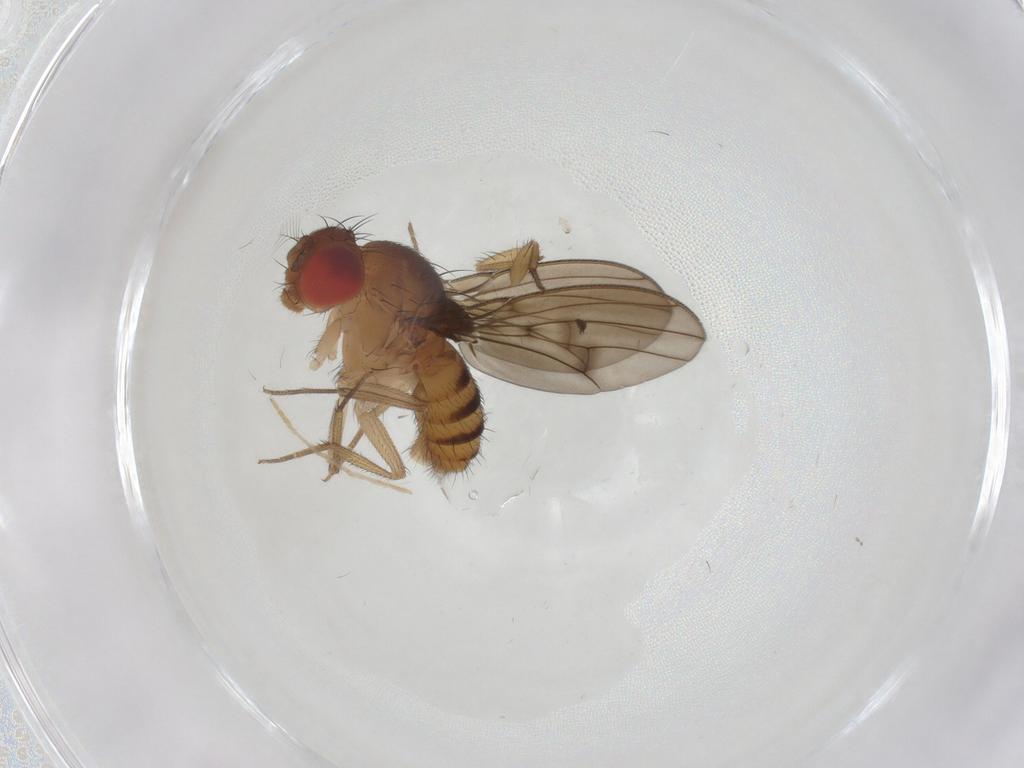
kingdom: Animalia
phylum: Arthropoda
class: Insecta
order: Diptera
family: Drosophilidae
